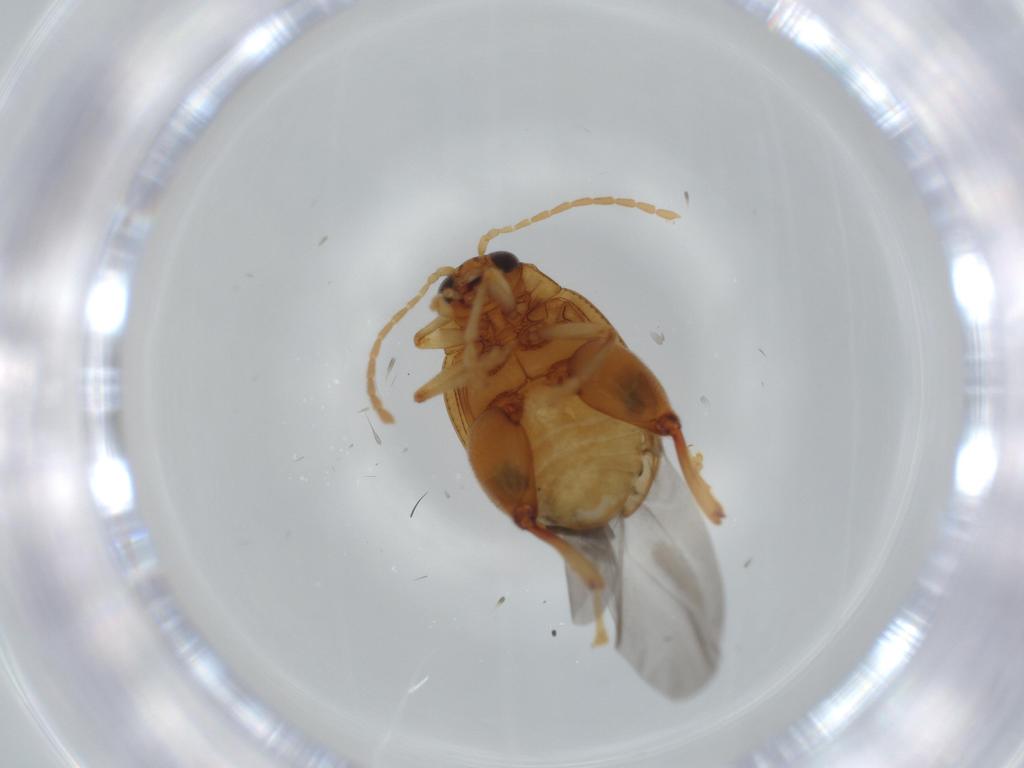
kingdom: Animalia
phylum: Arthropoda
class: Insecta
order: Coleoptera
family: Chrysomelidae
